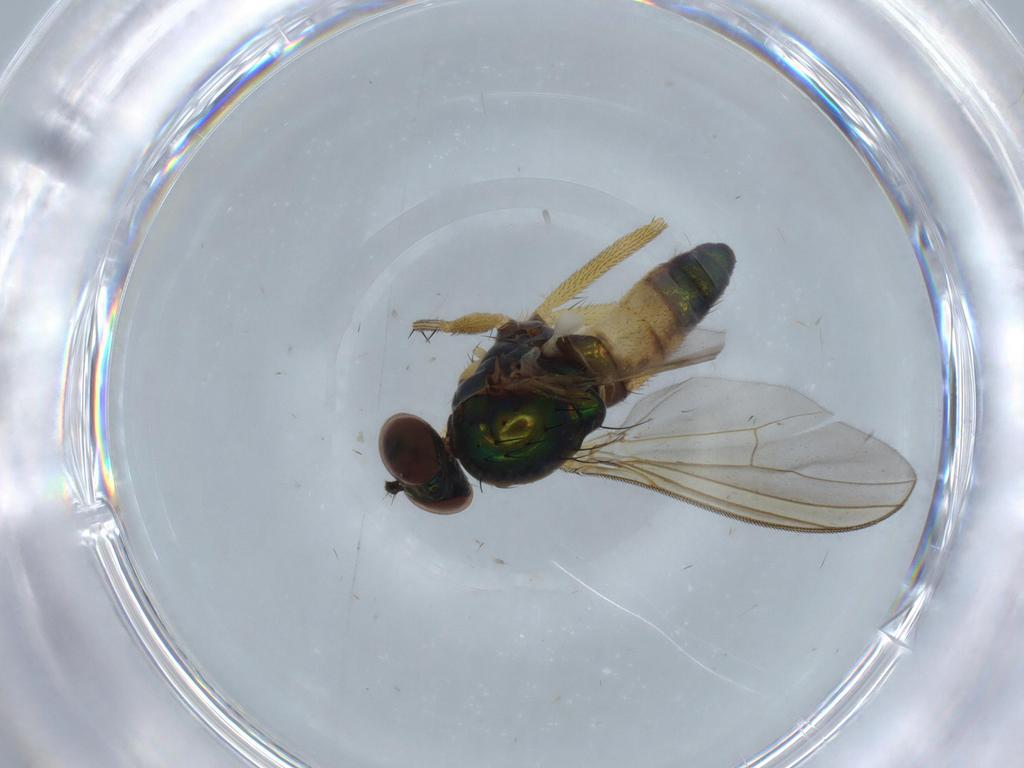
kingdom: Animalia
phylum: Arthropoda
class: Insecta
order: Diptera
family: Dolichopodidae
